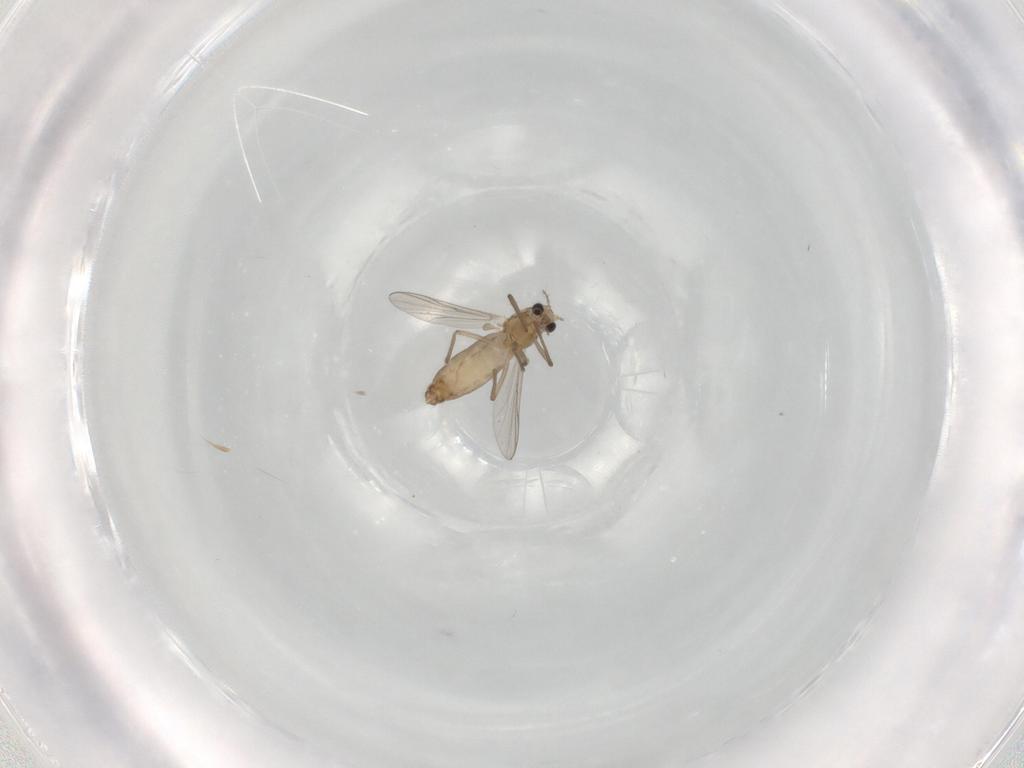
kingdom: Animalia
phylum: Arthropoda
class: Insecta
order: Diptera
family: Chironomidae
